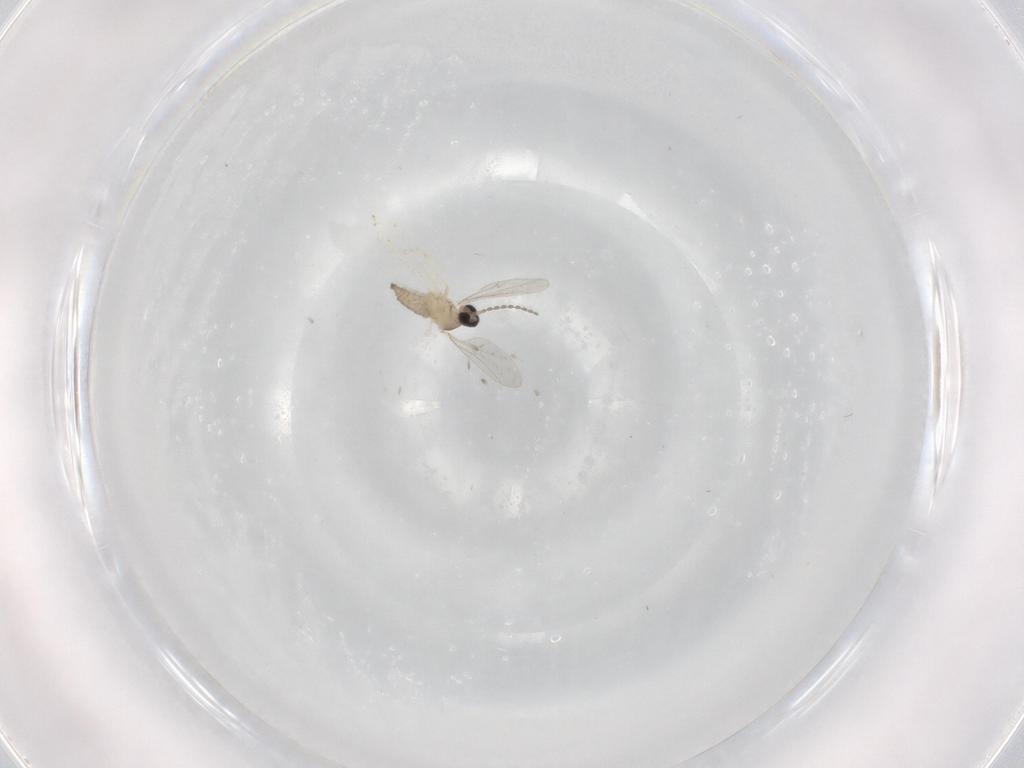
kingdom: Animalia
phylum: Arthropoda
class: Insecta
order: Diptera
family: Cecidomyiidae
